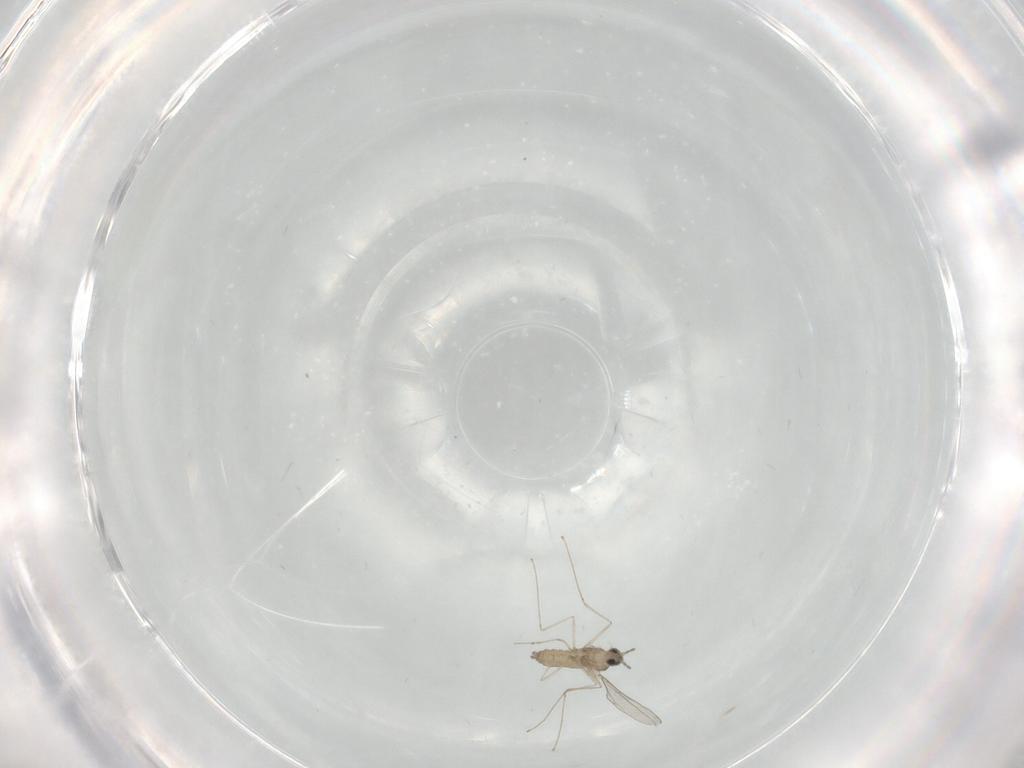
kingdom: Animalia
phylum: Arthropoda
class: Insecta
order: Diptera
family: Cecidomyiidae
